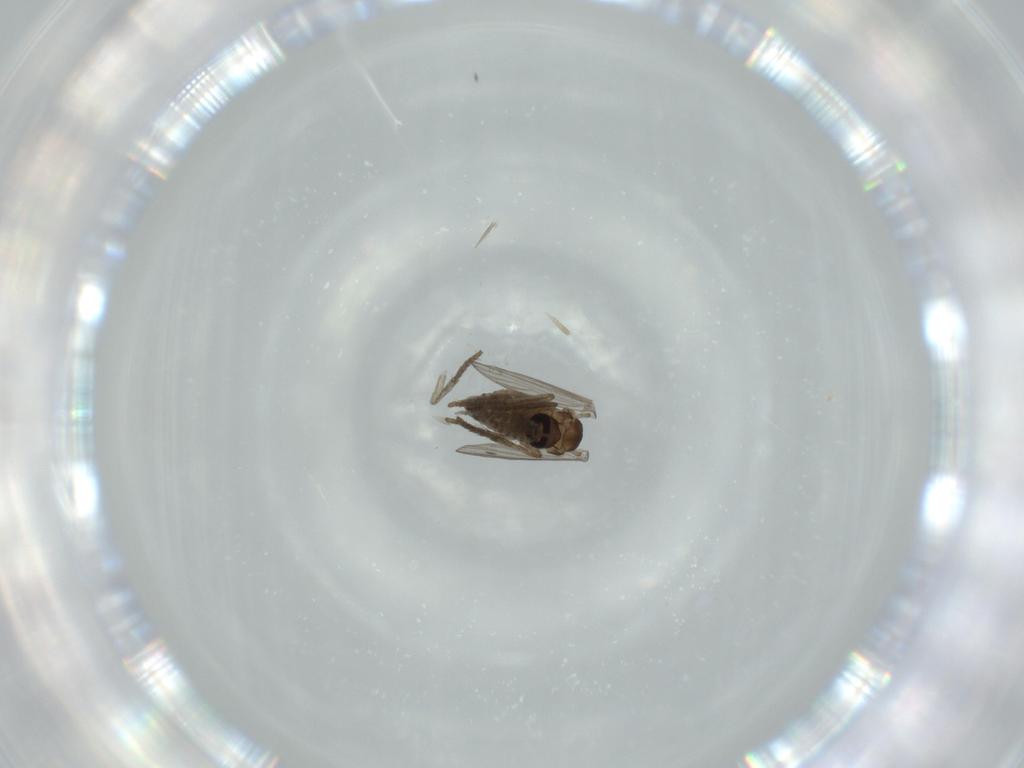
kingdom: Animalia
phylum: Arthropoda
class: Insecta
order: Diptera
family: Psychodidae
